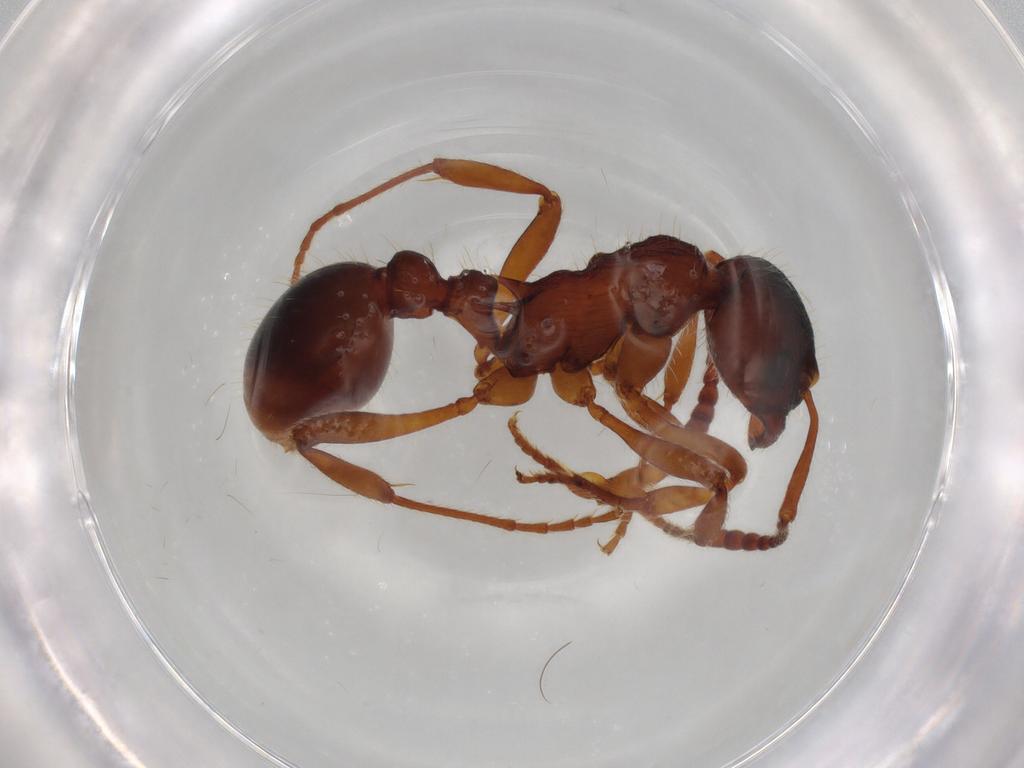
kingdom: Animalia
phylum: Arthropoda
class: Insecta
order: Hymenoptera
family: Formicidae
